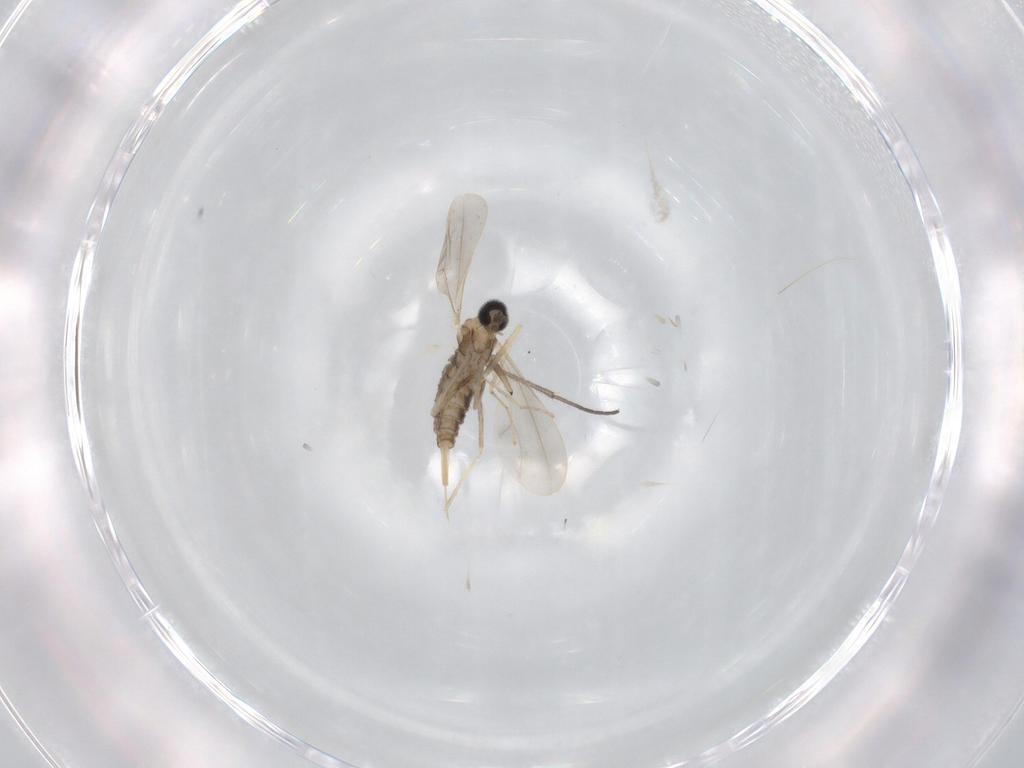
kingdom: Animalia
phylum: Arthropoda
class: Insecta
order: Diptera
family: Sciaridae
